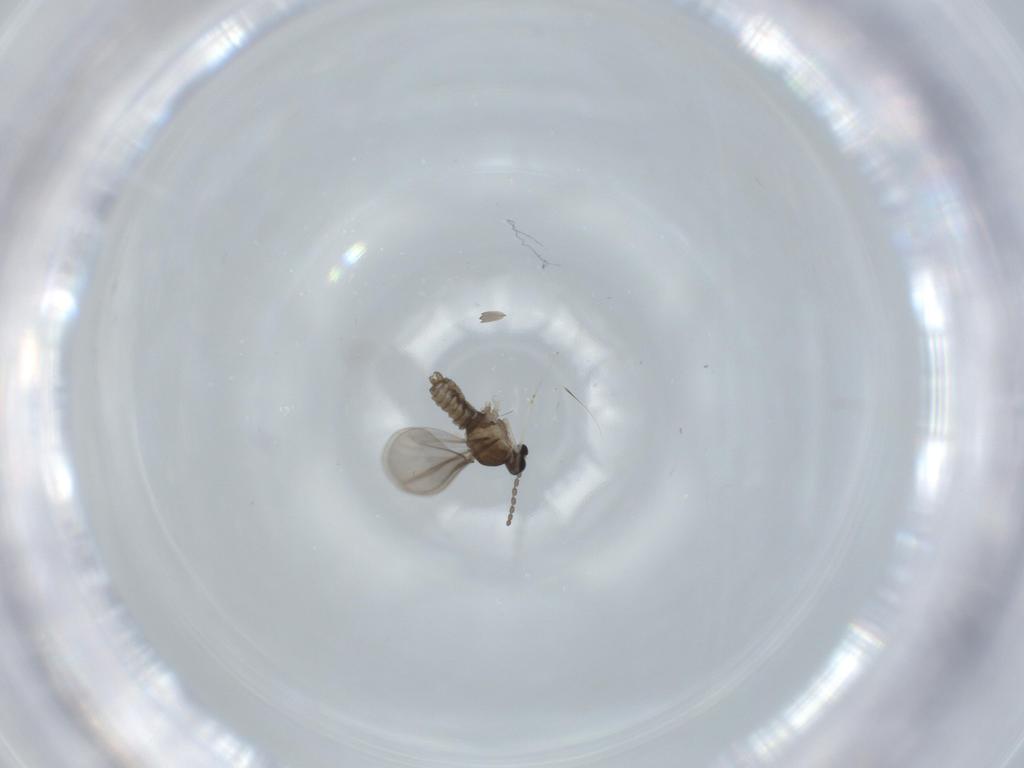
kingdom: Animalia
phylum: Arthropoda
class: Insecta
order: Diptera
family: Cecidomyiidae
